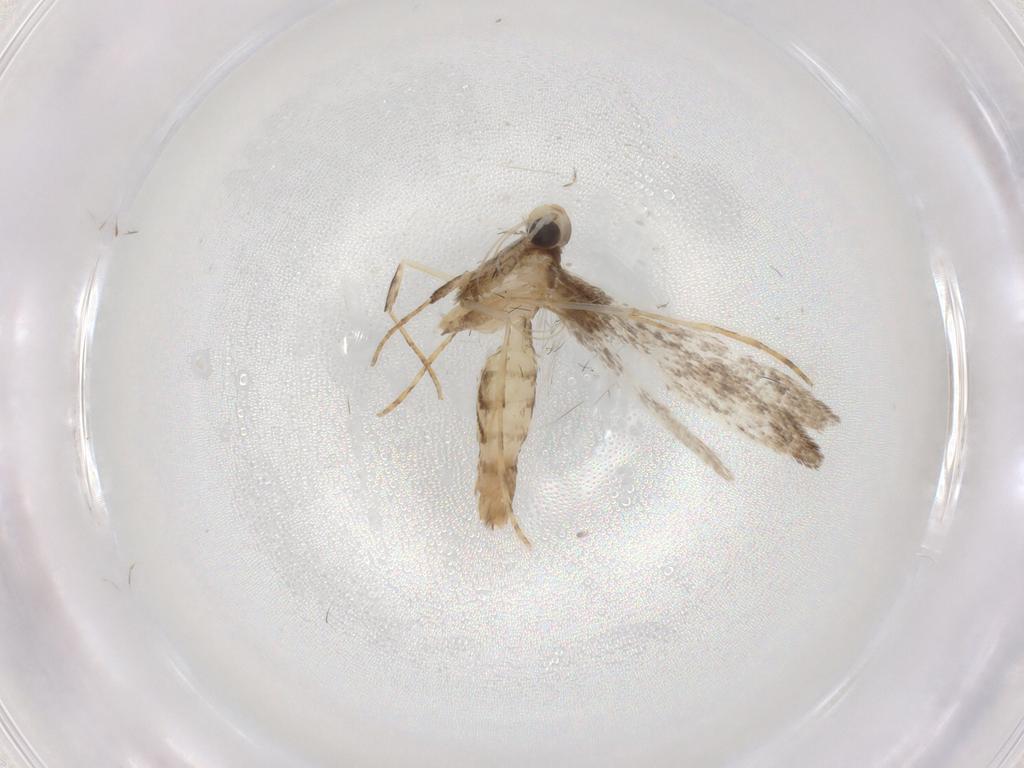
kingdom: Animalia
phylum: Arthropoda
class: Insecta
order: Lepidoptera
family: Gracillariidae
